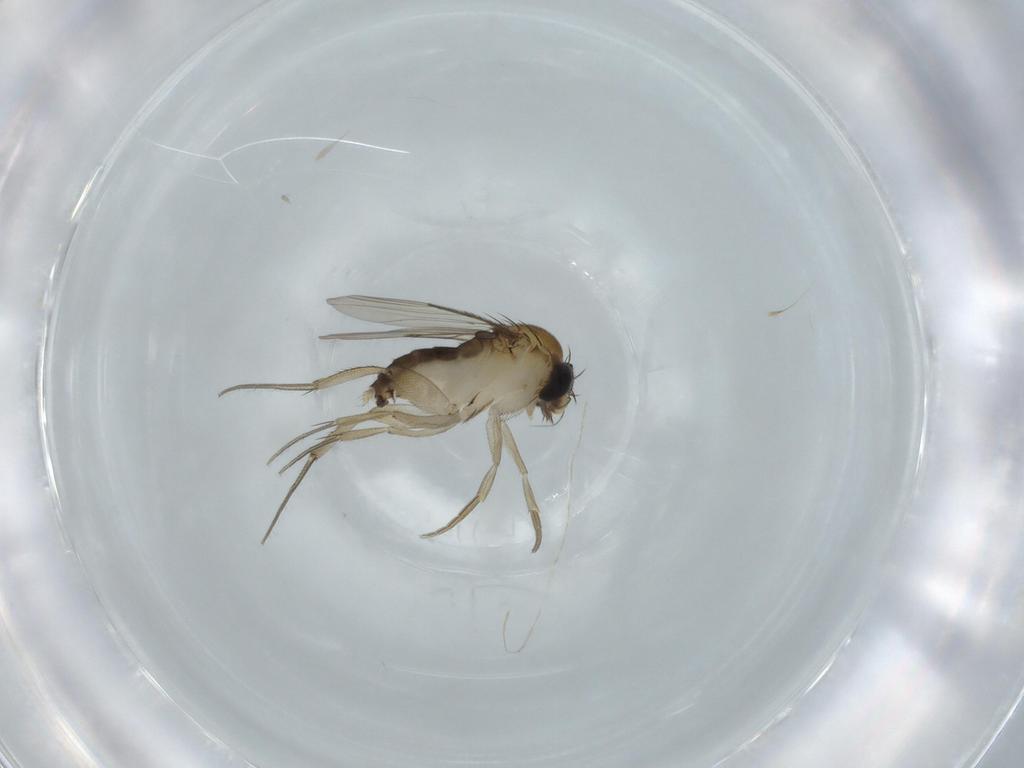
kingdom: Animalia
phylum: Arthropoda
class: Insecta
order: Diptera
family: Phoridae
